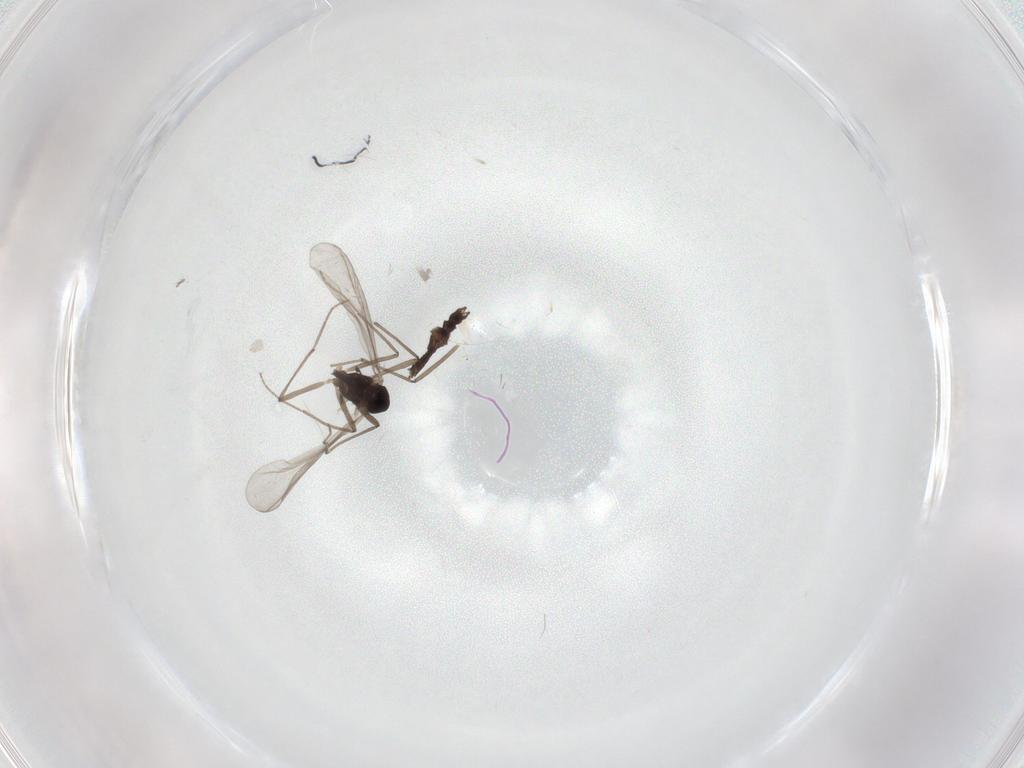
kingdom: Animalia
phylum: Arthropoda
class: Insecta
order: Diptera
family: Chironomidae
